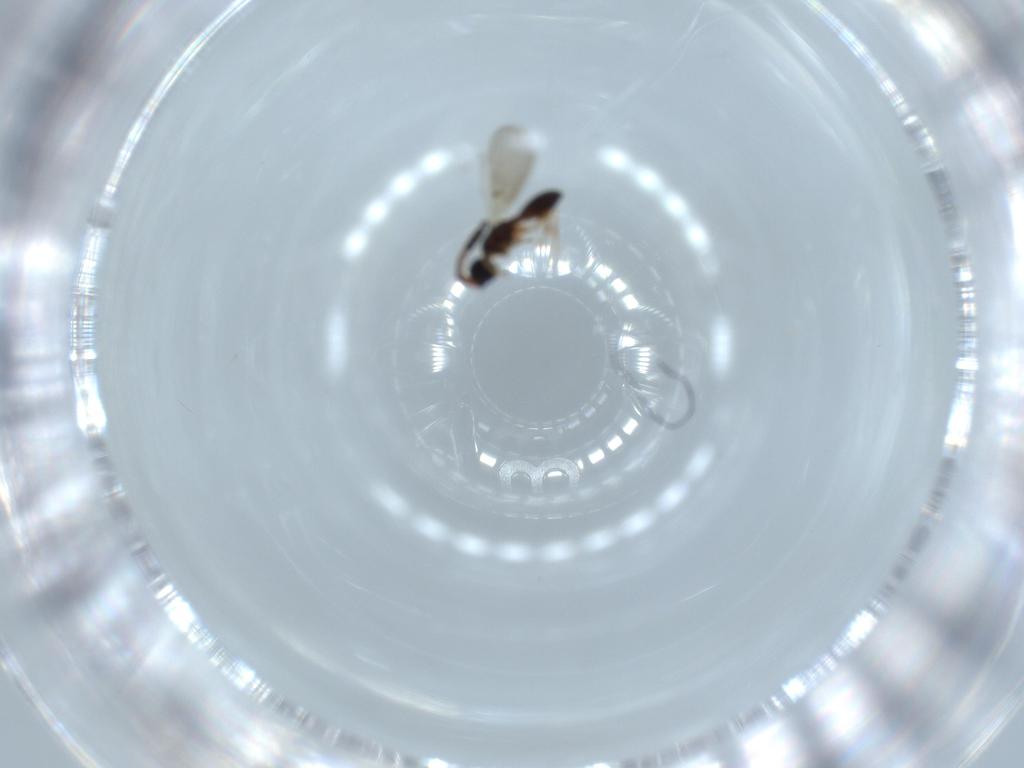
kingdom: Animalia
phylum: Arthropoda
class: Insecta
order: Hymenoptera
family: Diapriidae
